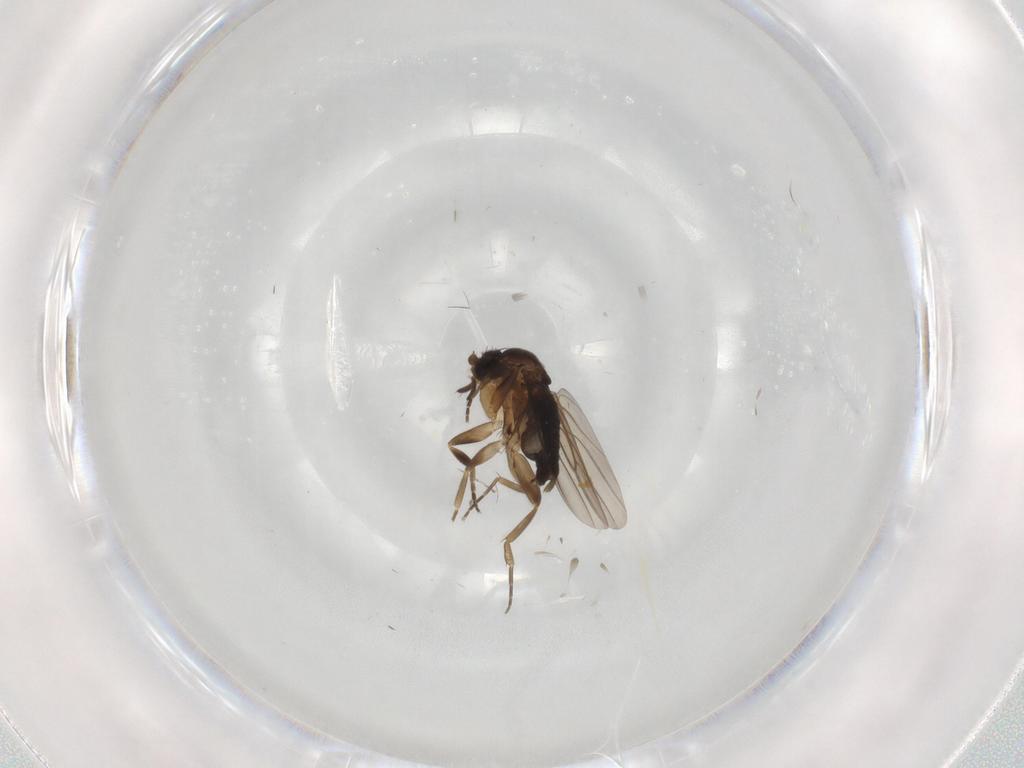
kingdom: Animalia
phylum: Arthropoda
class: Insecta
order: Diptera
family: Phoridae
